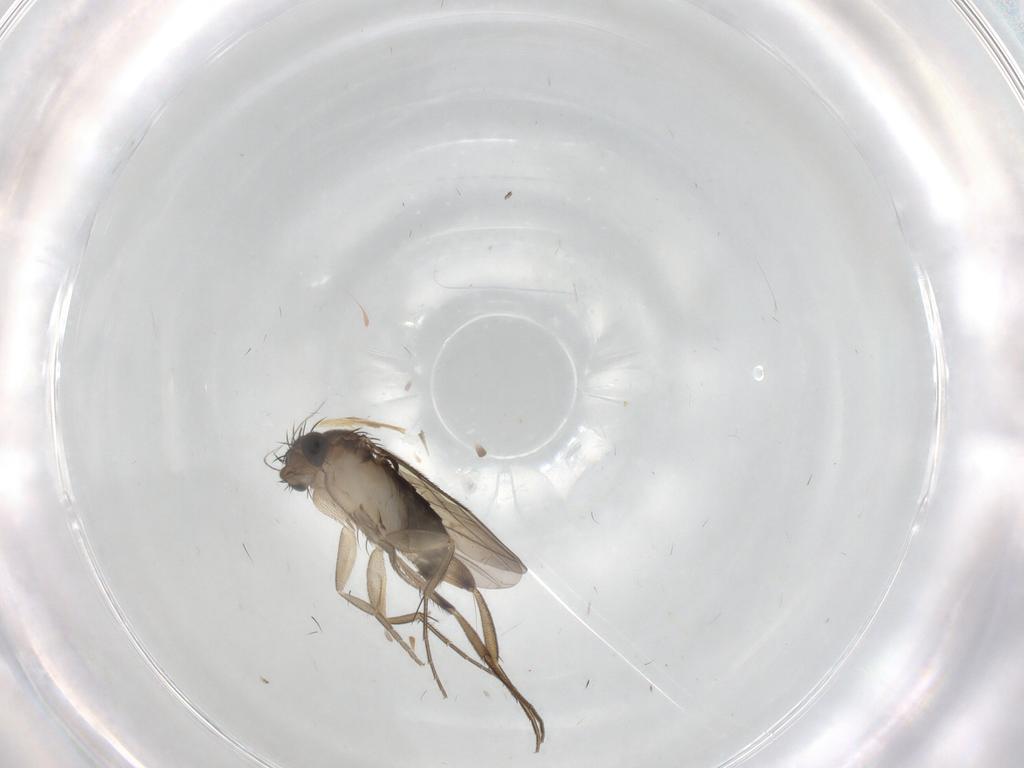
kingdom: Animalia
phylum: Arthropoda
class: Insecta
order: Diptera
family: Phoridae
